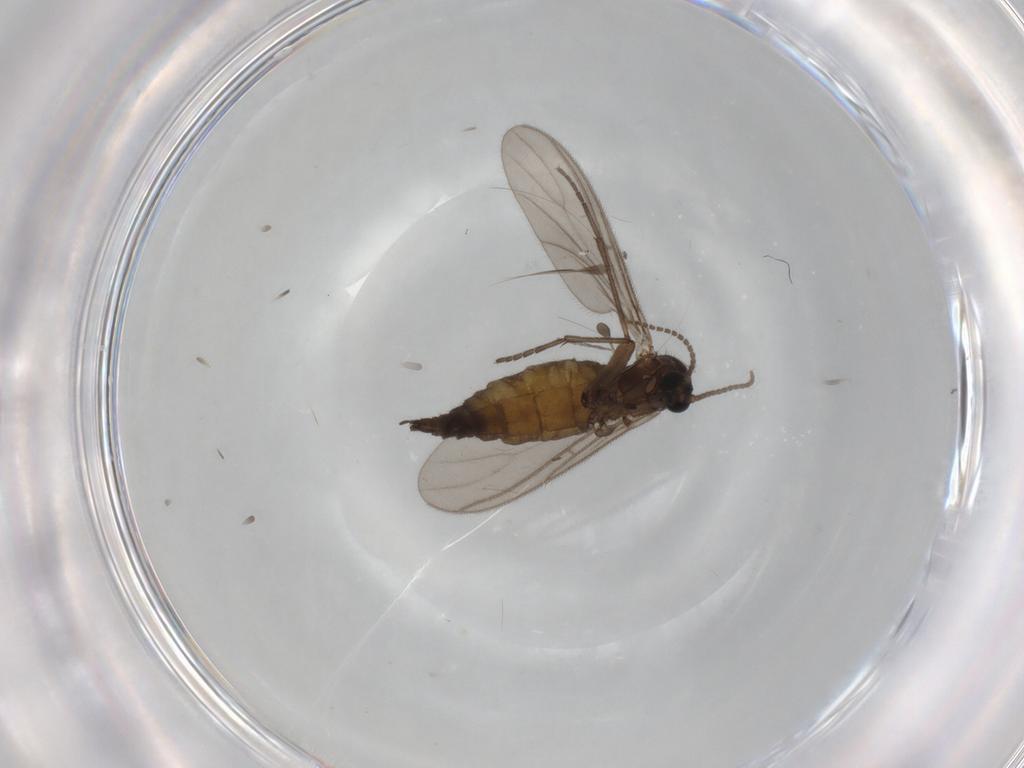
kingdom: Animalia
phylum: Arthropoda
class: Insecta
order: Diptera
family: Sciaridae
